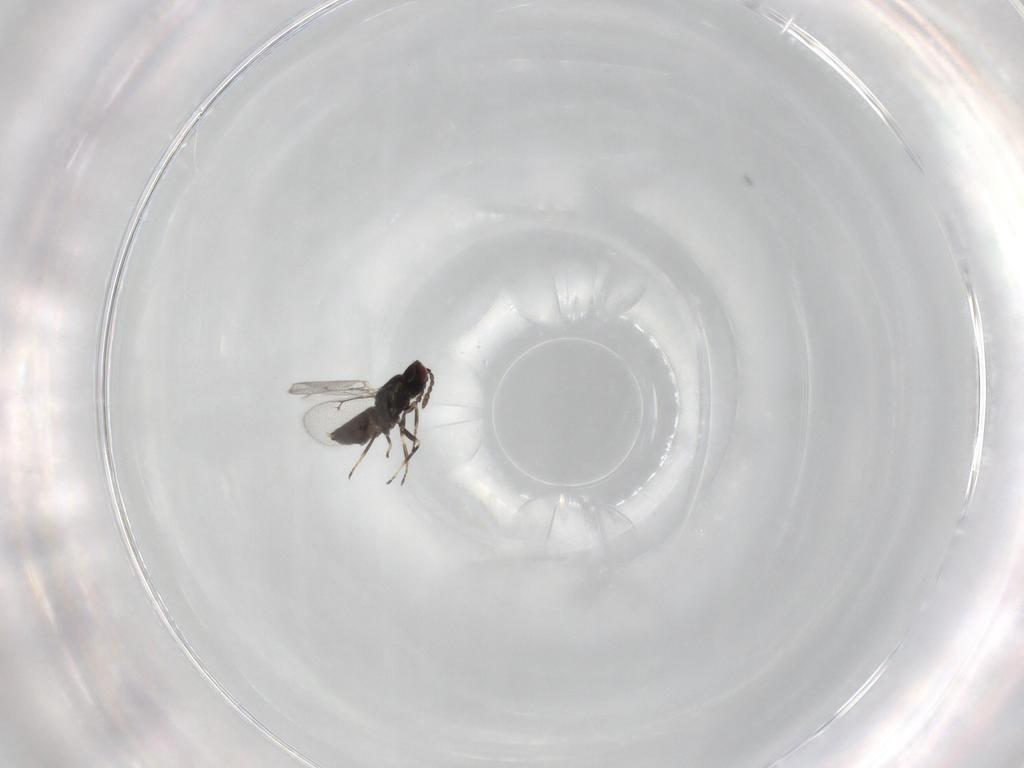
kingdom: Animalia
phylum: Arthropoda
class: Insecta
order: Hymenoptera
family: Eulophidae
